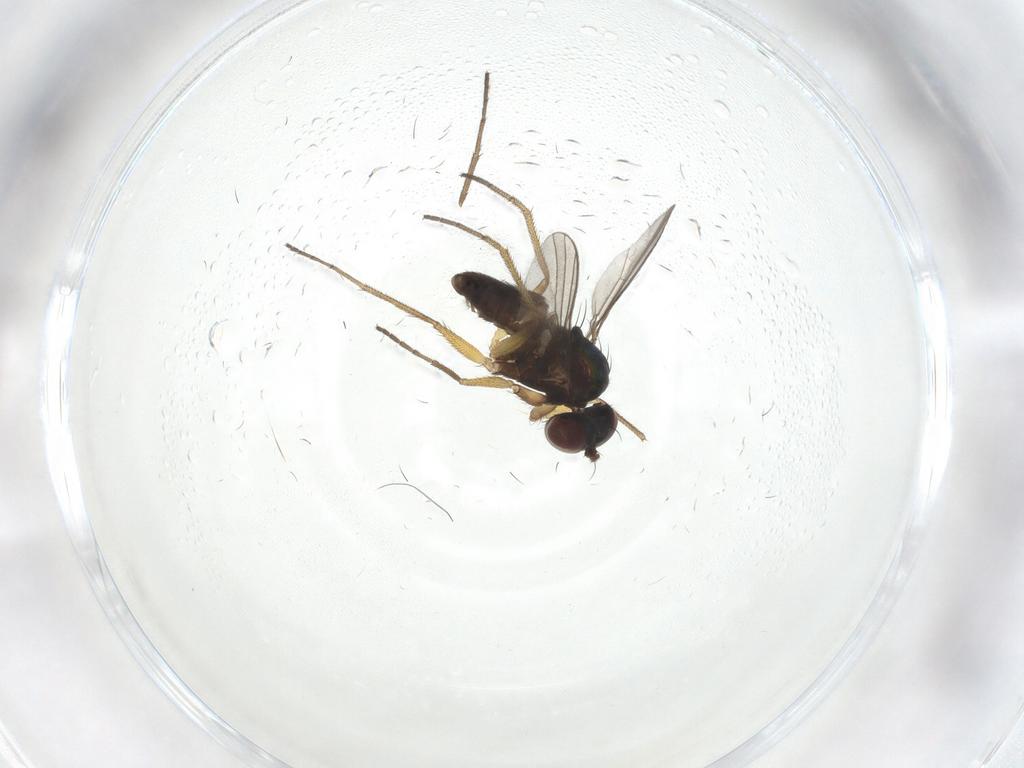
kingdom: Animalia
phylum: Arthropoda
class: Insecta
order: Diptera
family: Dolichopodidae
